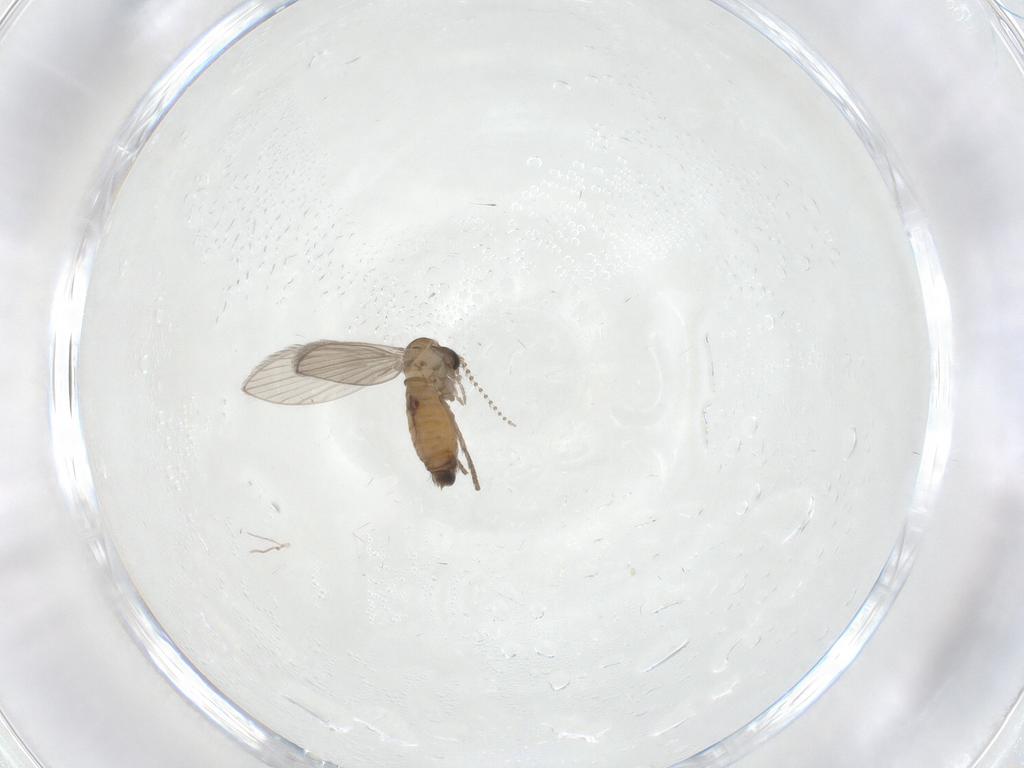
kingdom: Animalia
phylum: Arthropoda
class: Insecta
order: Diptera
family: Psychodidae
